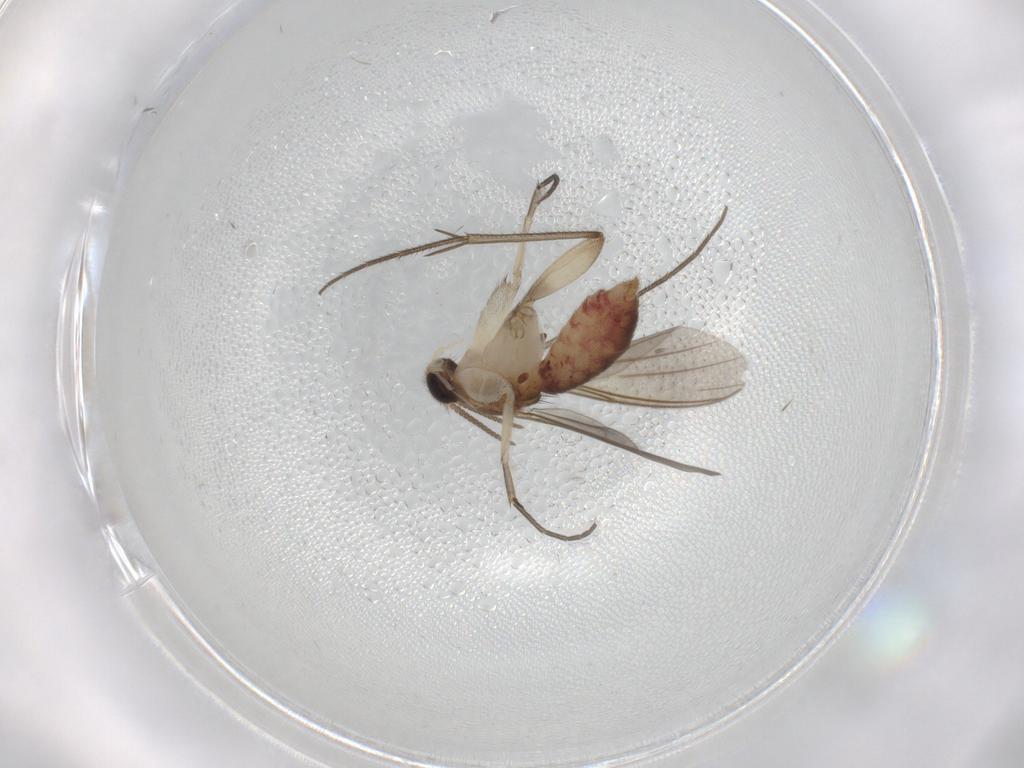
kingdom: Animalia
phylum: Arthropoda
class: Insecta
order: Diptera
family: Mycetophilidae
